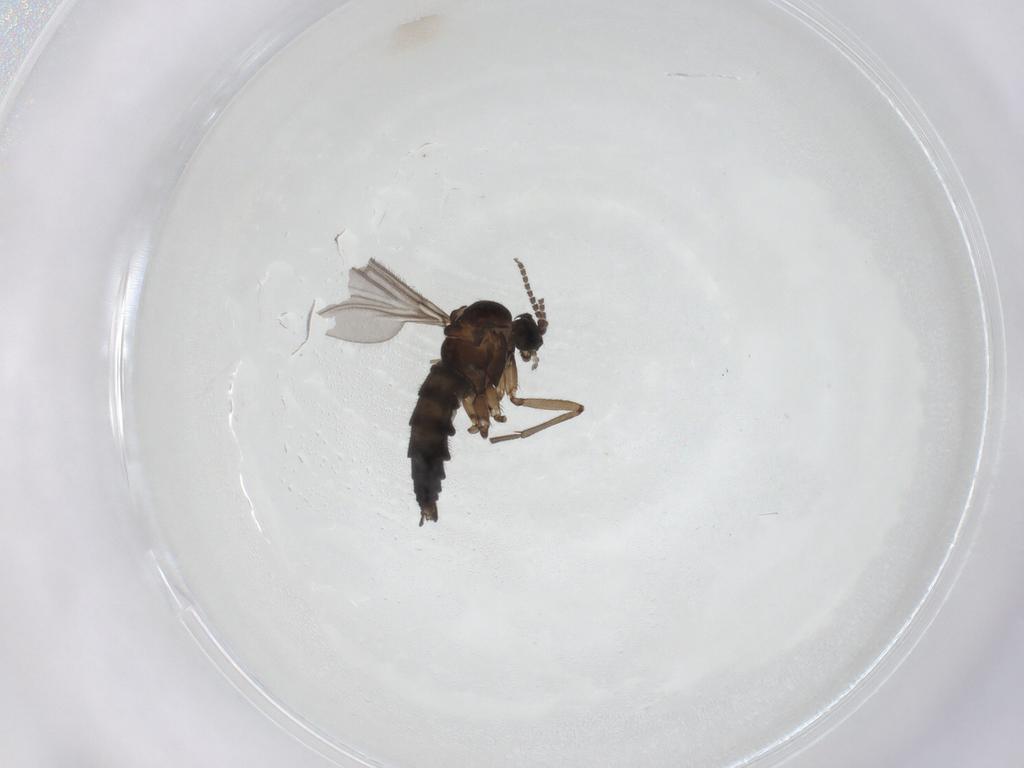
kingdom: Animalia
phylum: Arthropoda
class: Insecta
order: Diptera
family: Sciaridae
